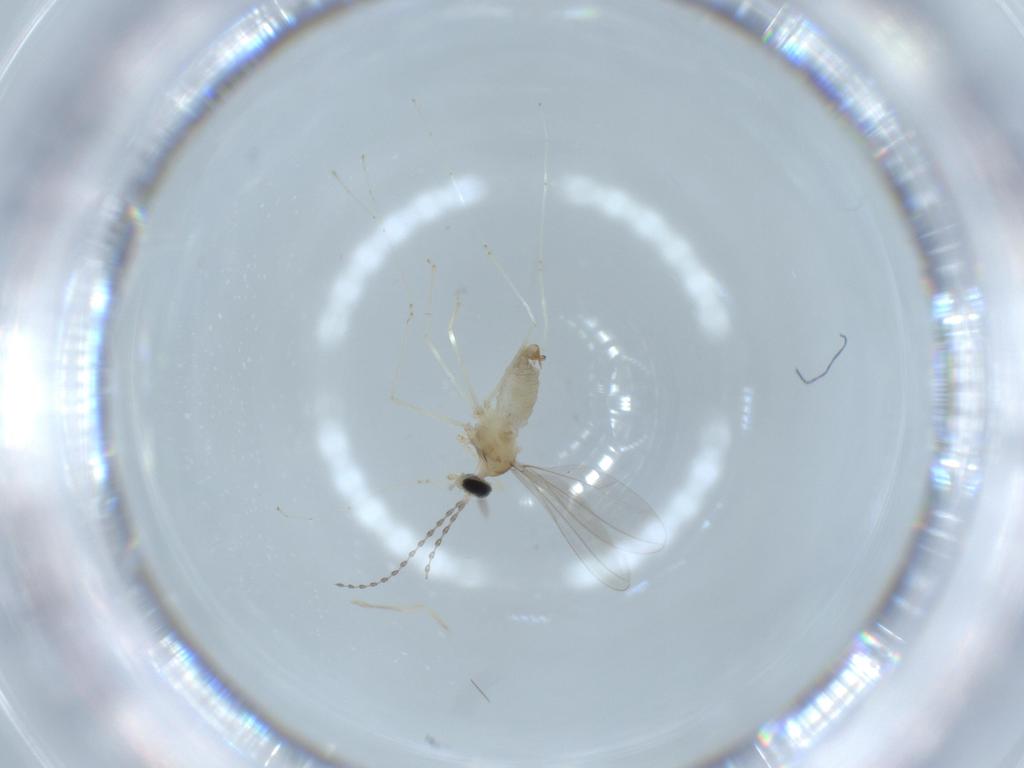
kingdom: Animalia
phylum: Arthropoda
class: Insecta
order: Diptera
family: Cecidomyiidae
